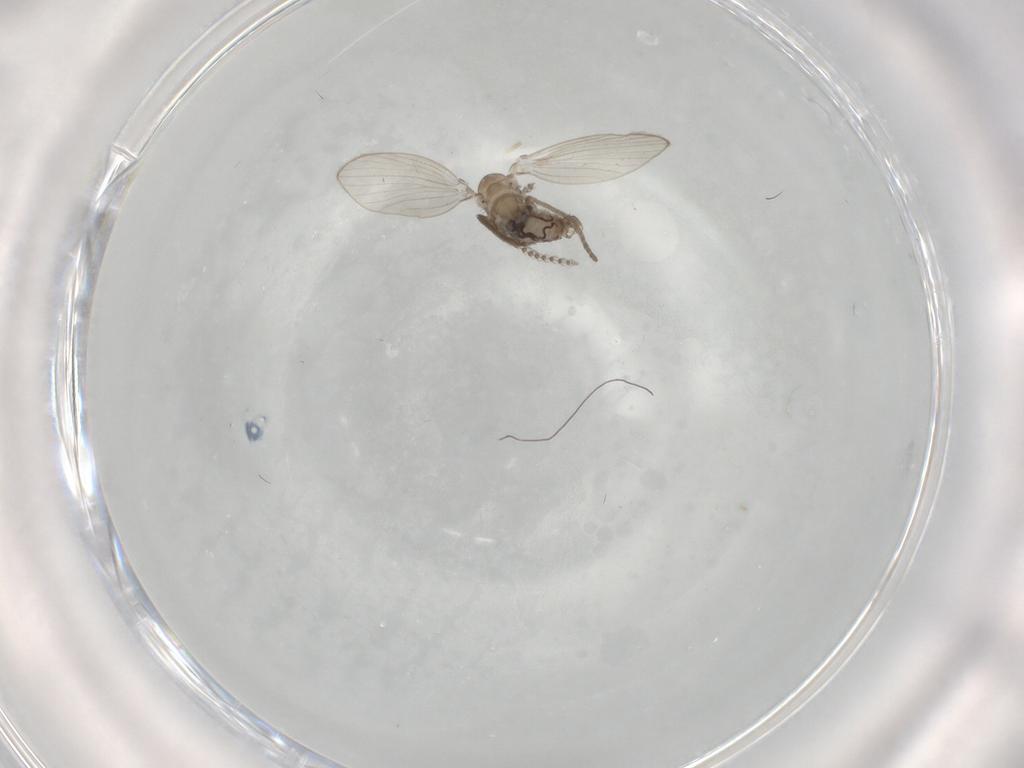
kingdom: Animalia
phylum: Arthropoda
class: Insecta
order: Diptera
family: Psychodidae
